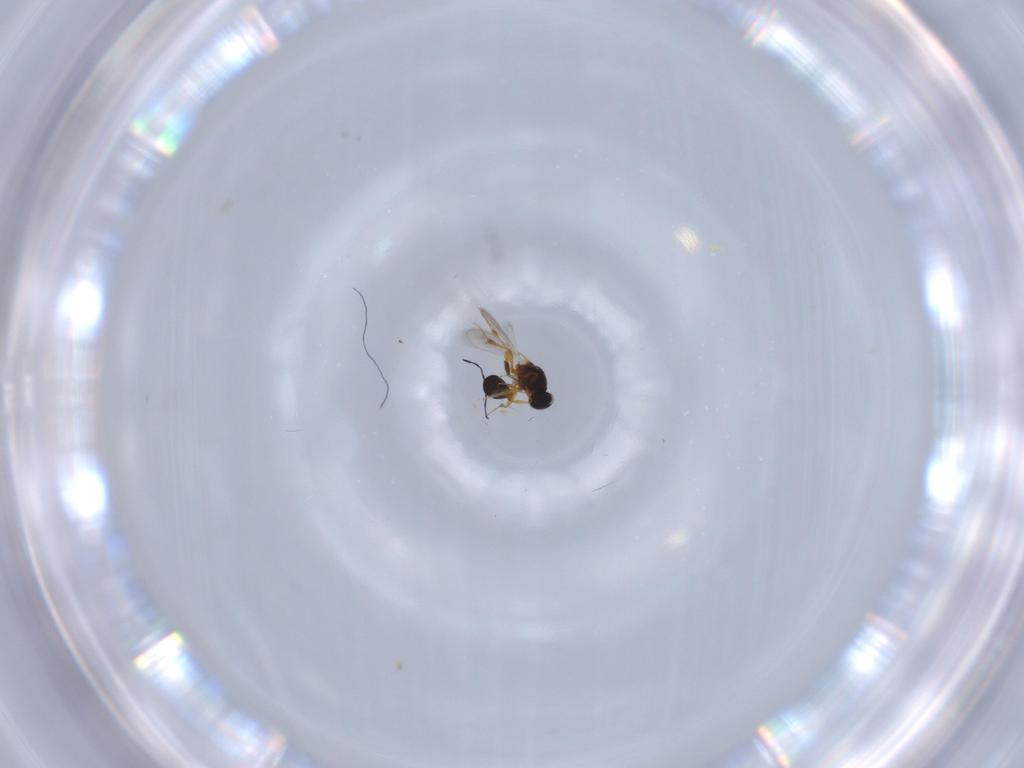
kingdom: Animalia
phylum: Arthropoda
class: Insecta
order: Hymenoptera
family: Platygastridae
